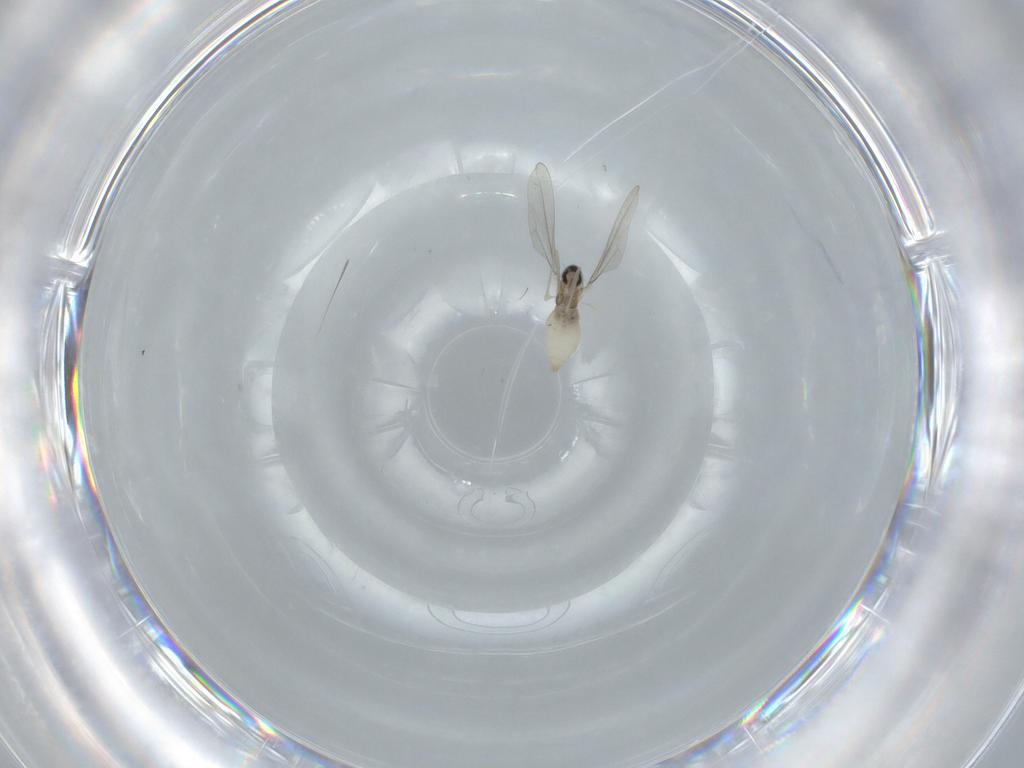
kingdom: Animalia
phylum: Arthropoda
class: Insecta
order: Diptera
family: Cecidomyiidae
